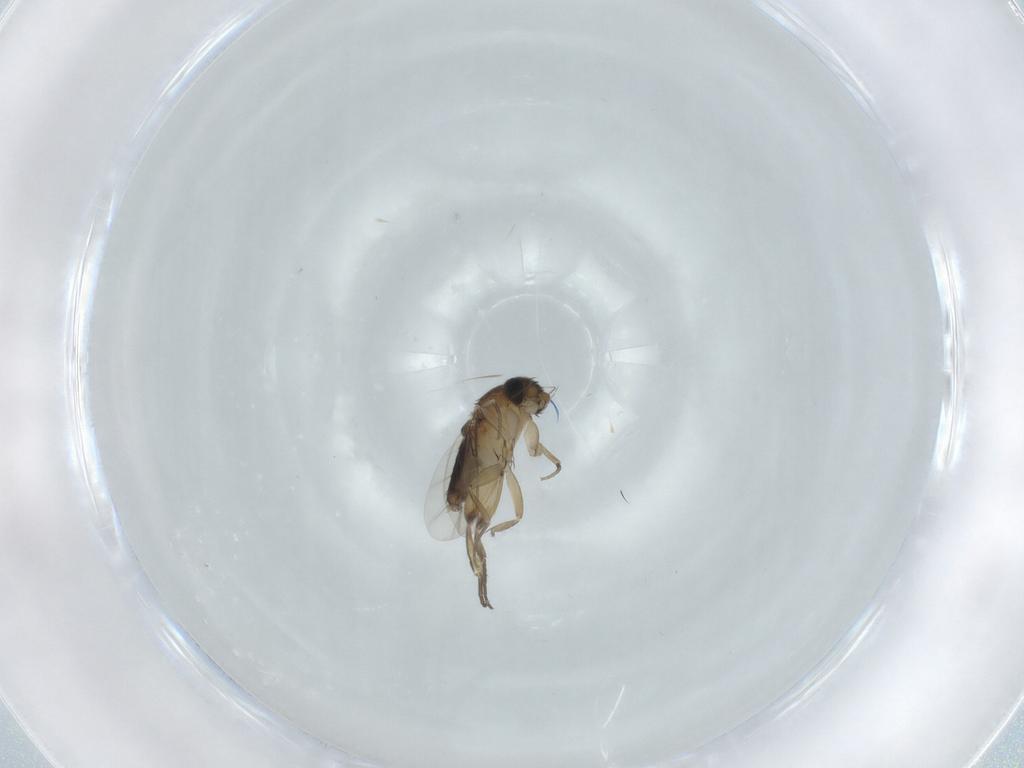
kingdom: Animalia
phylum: Arthropoda
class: Insecta
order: Diptera
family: Phoridae
